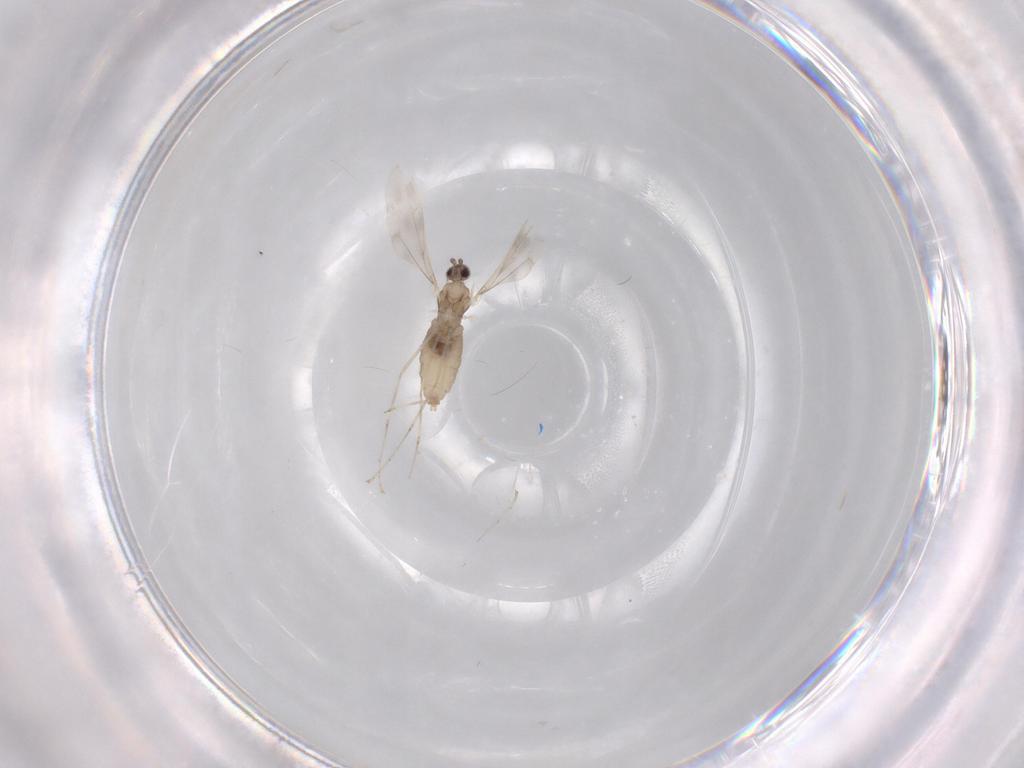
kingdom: Animalia
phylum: Arthropoda
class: Insecta
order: Diptera
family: Cecidomyiidae
